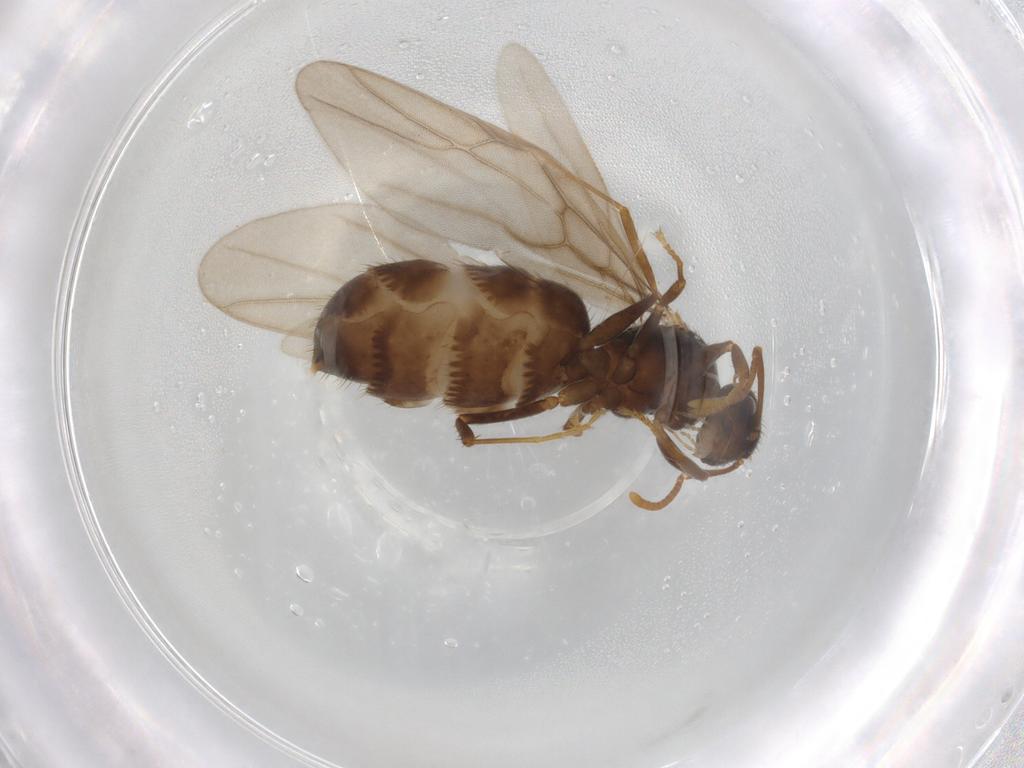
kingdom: Animalia
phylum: Arthropoda
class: Insecta
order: Hymenoptera
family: Formicidae
